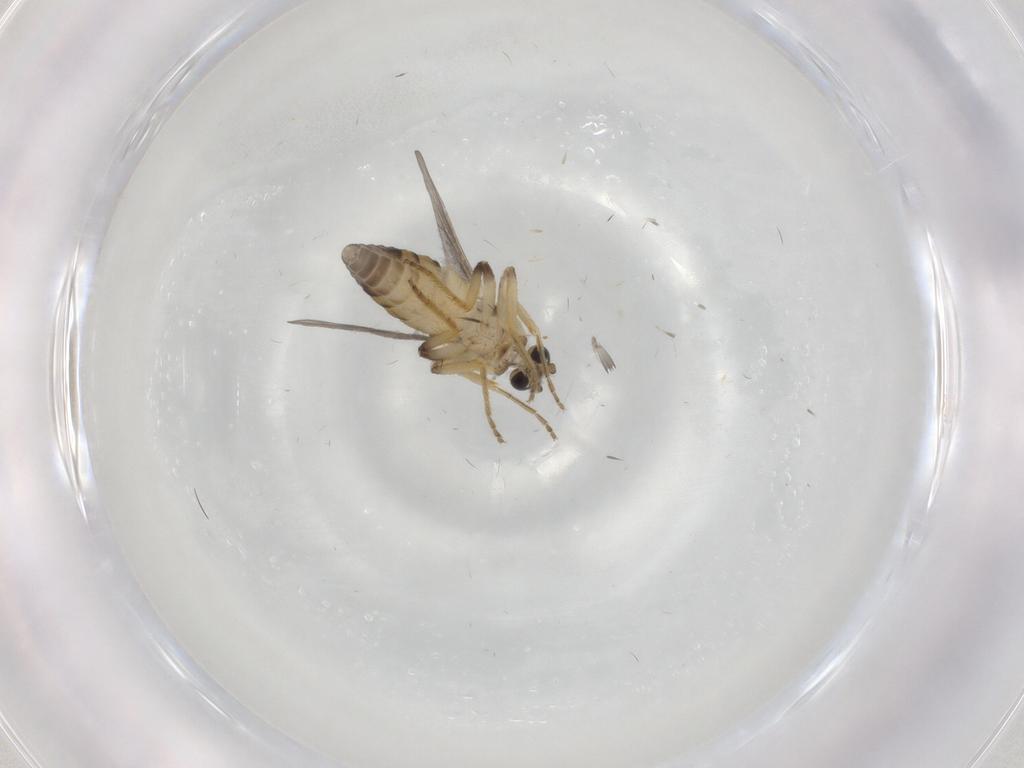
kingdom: Animalia
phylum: Arthropoda
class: Insecta
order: Diptera
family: Ceratopogonidae
